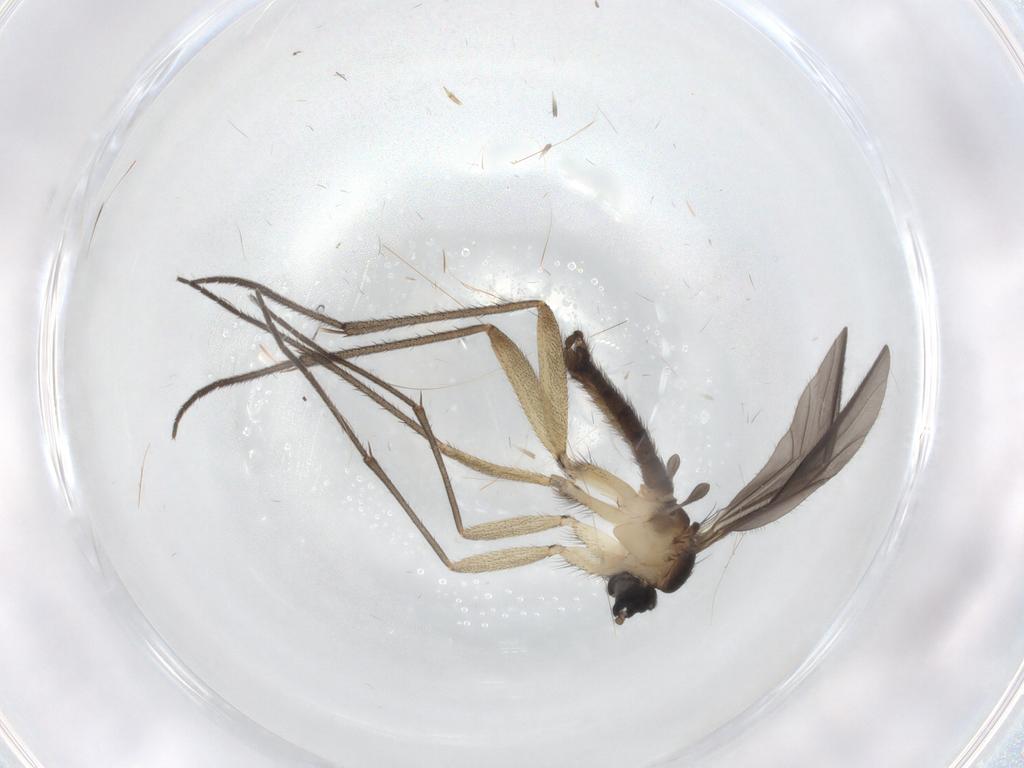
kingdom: Animalia
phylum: Arthropoda
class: Insecta
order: Diptera
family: Sciaridae
